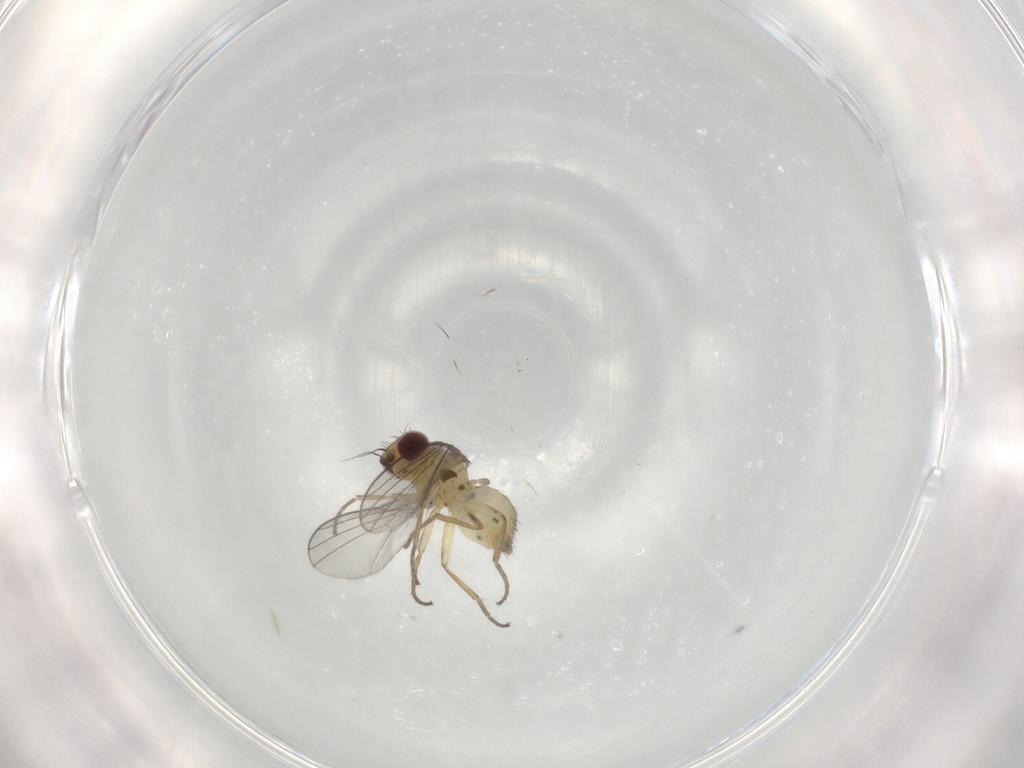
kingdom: Animalia
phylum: Arthropoda
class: Insecta
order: Diptera
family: Agromyzidae
